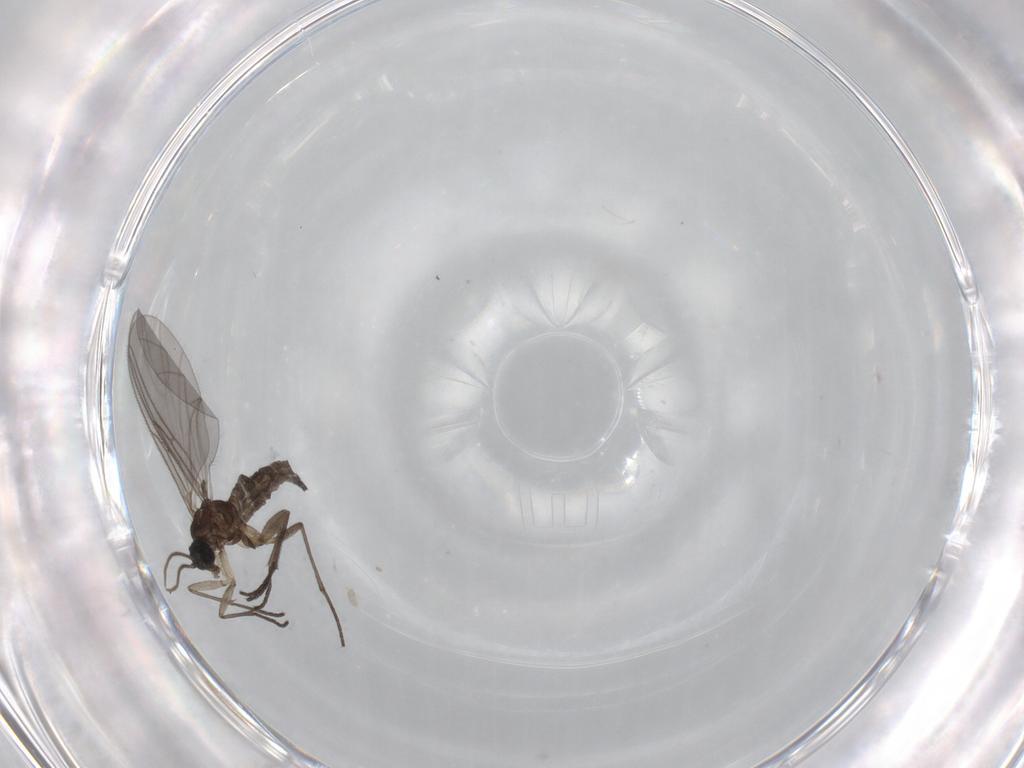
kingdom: Animalia
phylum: Arthropoda
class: Insecta
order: Diptera
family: Sciaridae
